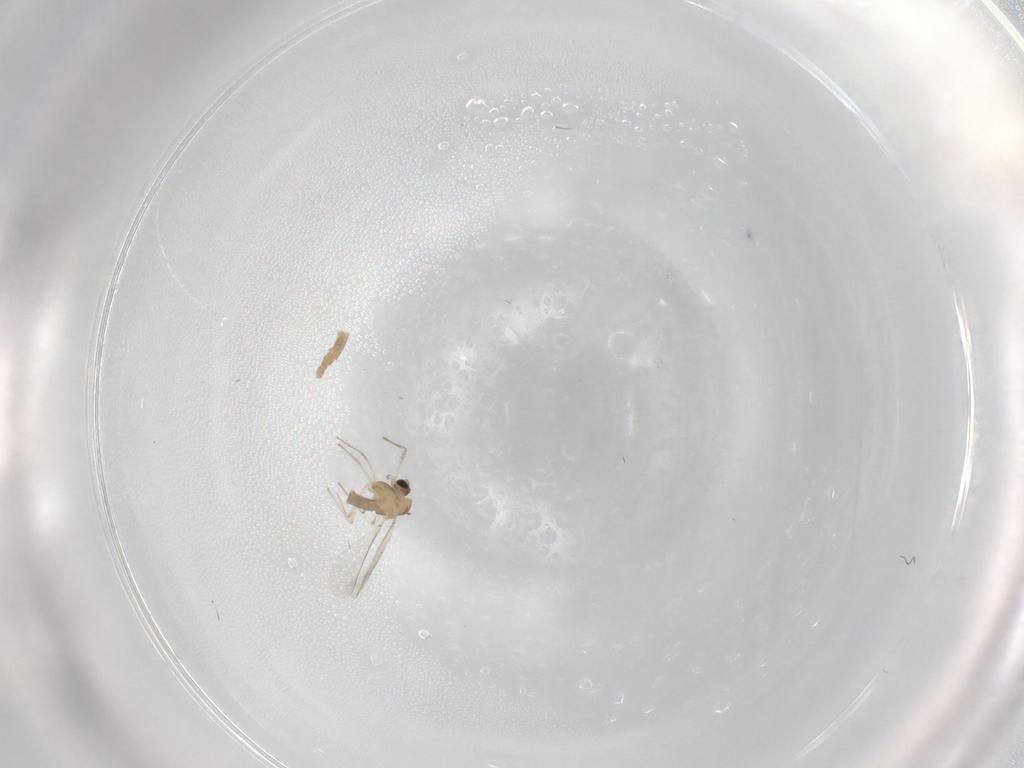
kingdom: Animalia
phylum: Arthropoda
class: Insecta
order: Diptera
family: Chironomidae
